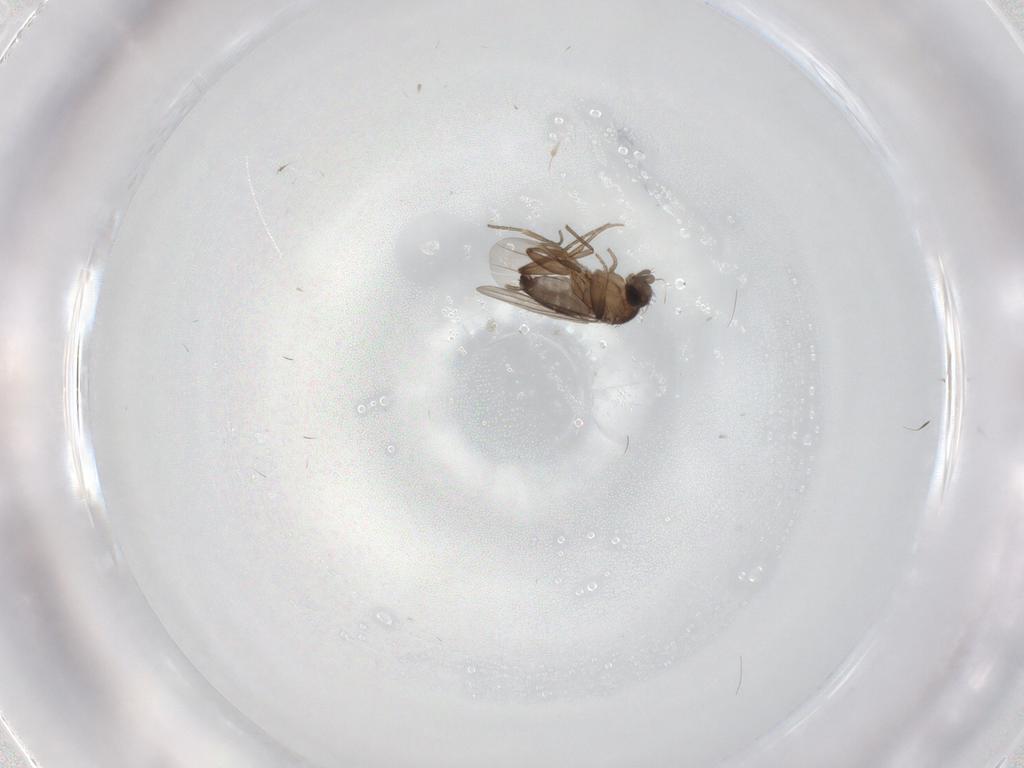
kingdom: Animalia
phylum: Arthropoda
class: Insecta
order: Diptera
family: Chironomidae
